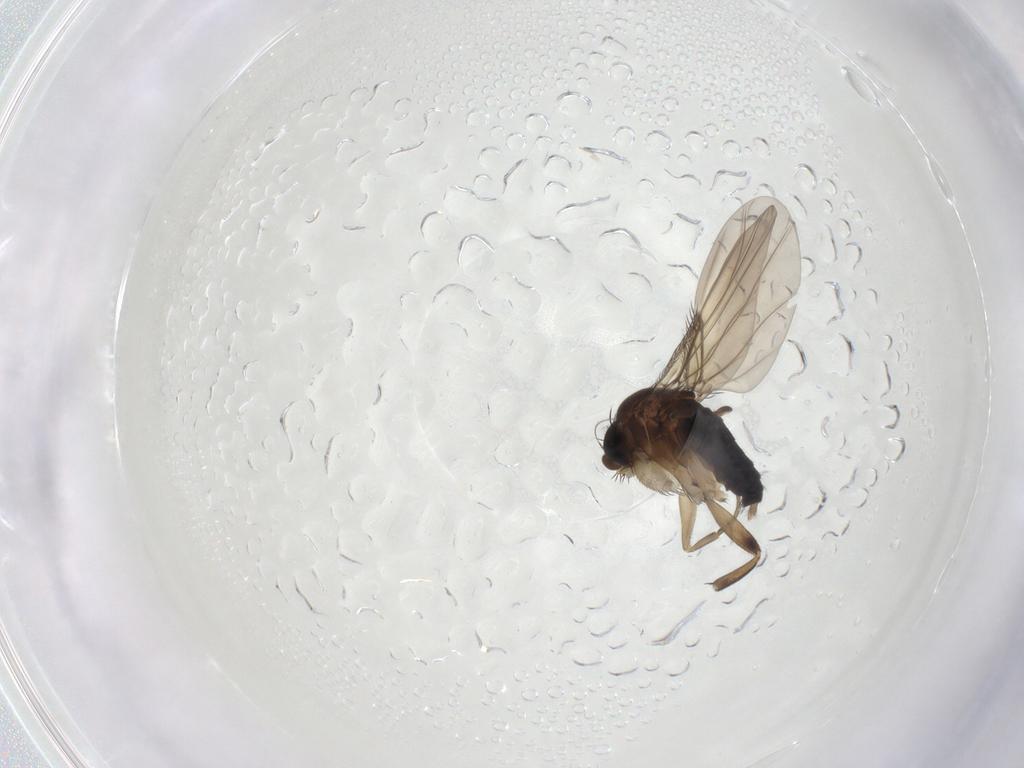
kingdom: Animalia
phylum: Arthropoda
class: Insecta
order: Diptera
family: Phoridae
